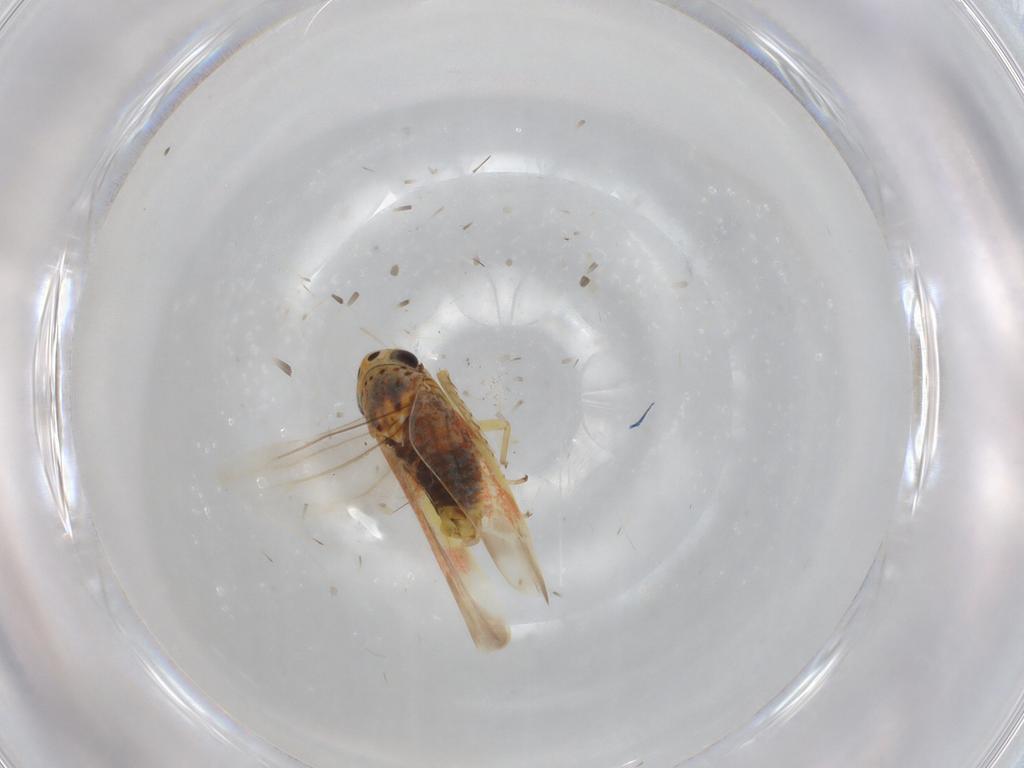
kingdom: Animalia
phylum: Arthropoda
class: Insecta
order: Hemiptera
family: Cicadellidae
